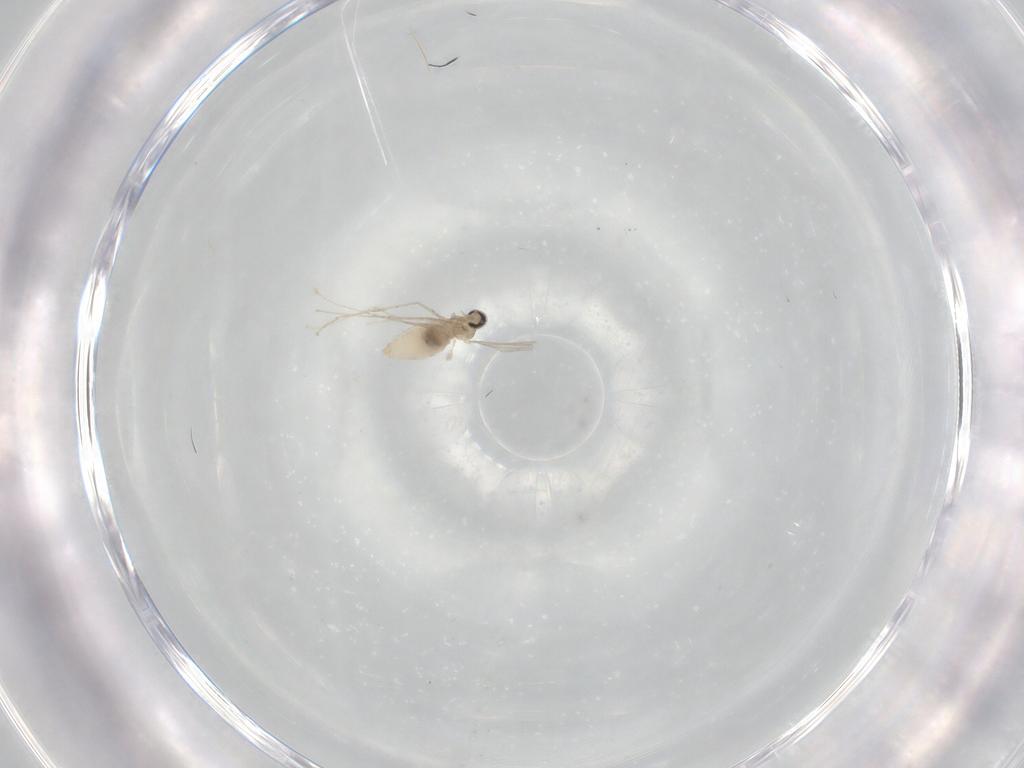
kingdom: Animalia
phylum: Arthropoda
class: Insecta
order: Diptera
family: Cecidomyiidae
